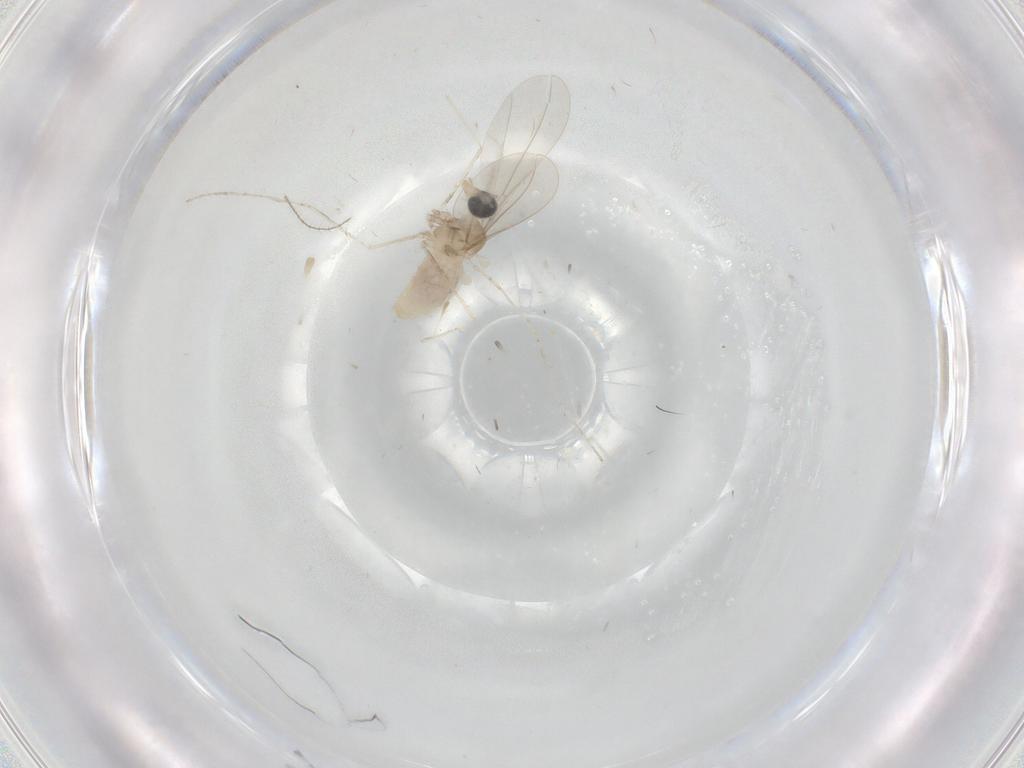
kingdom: Animalia
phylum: Arthropoda
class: Insecta
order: Diptera
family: Cecidomyiidae
